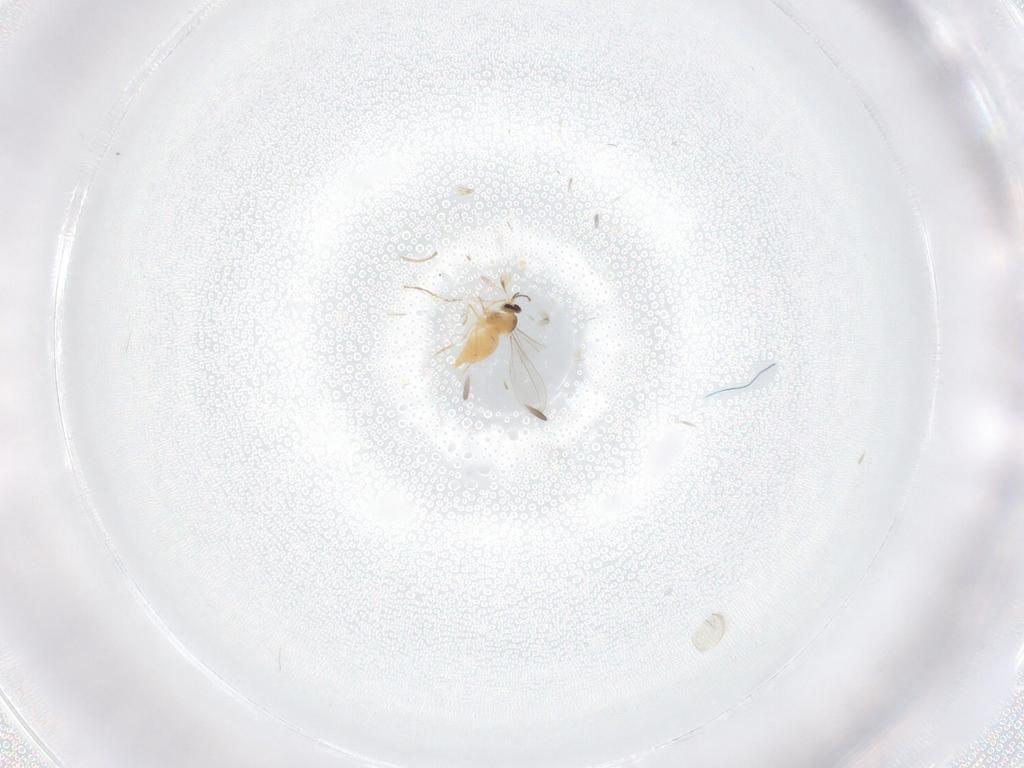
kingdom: Animalia
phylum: Arthropoda
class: Insecta
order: Diptera
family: Cecidomyiidae
